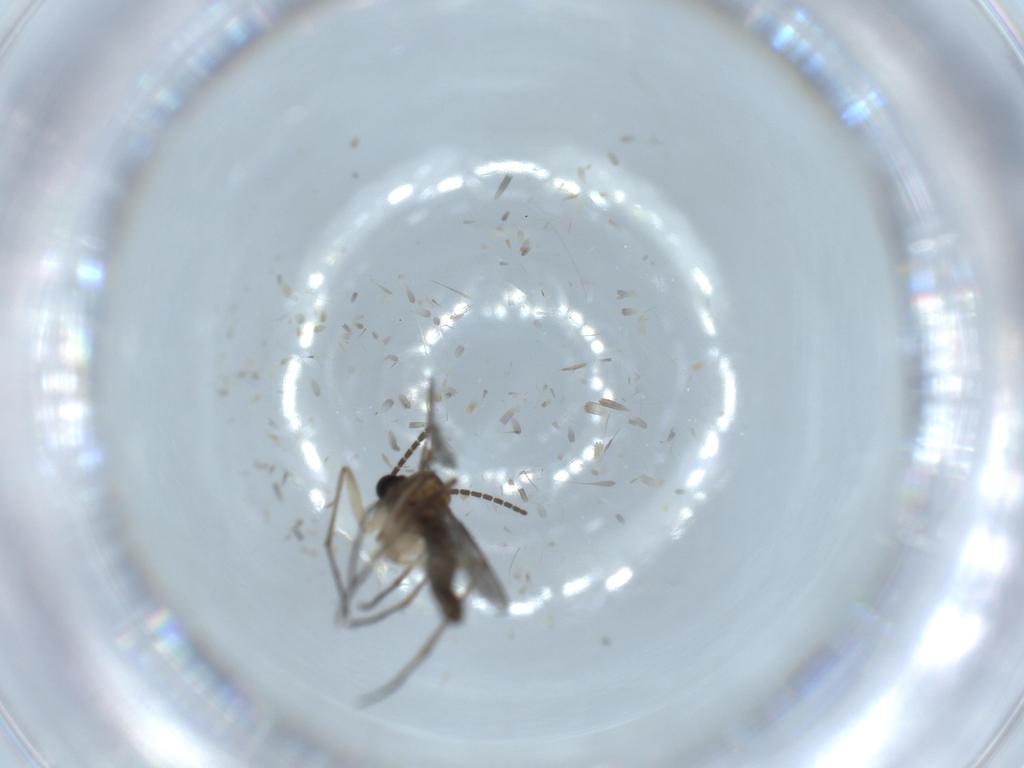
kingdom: Animalia
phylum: Arthropoda
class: Insecta
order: Diptera
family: Sciaridae
